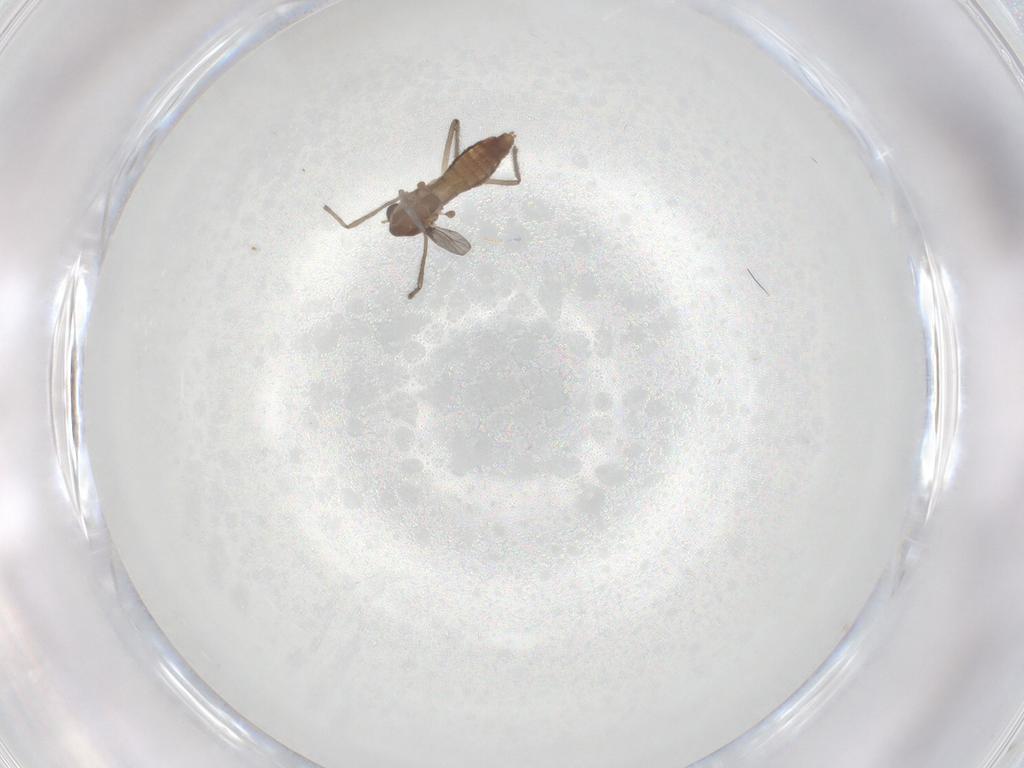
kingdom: Animalia
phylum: Arthropoda
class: Insecta
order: Diptera
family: Chironomidae
